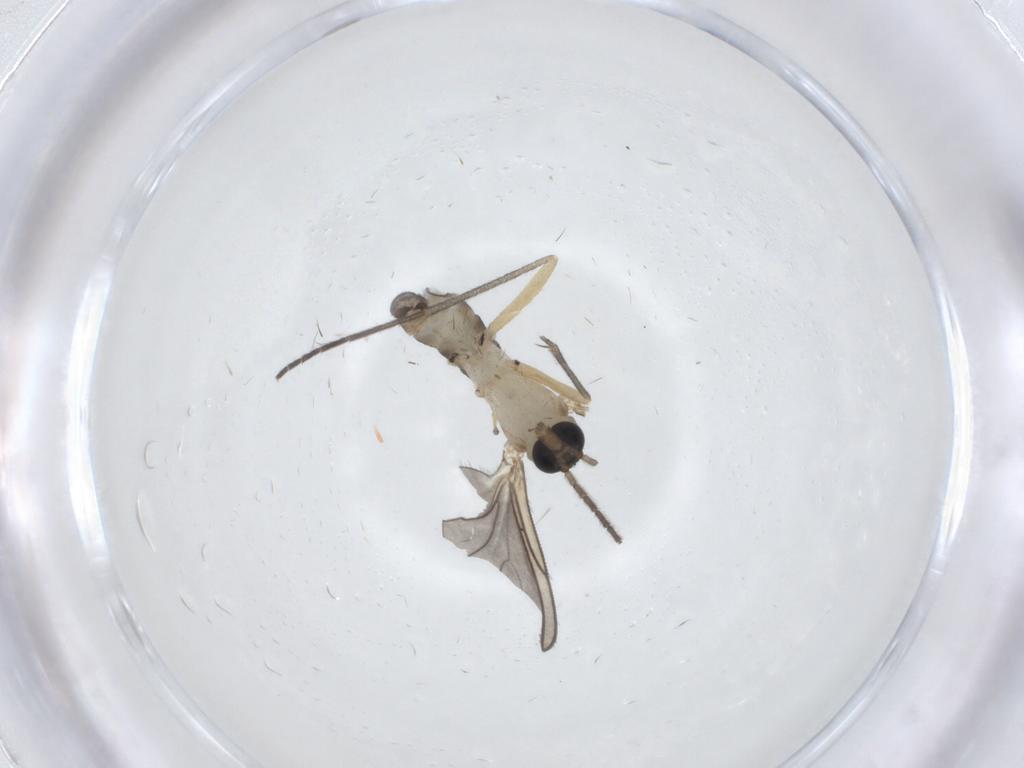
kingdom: Animalia
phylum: Arthropoda
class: Insecta
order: Diptera
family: Sciaridae
